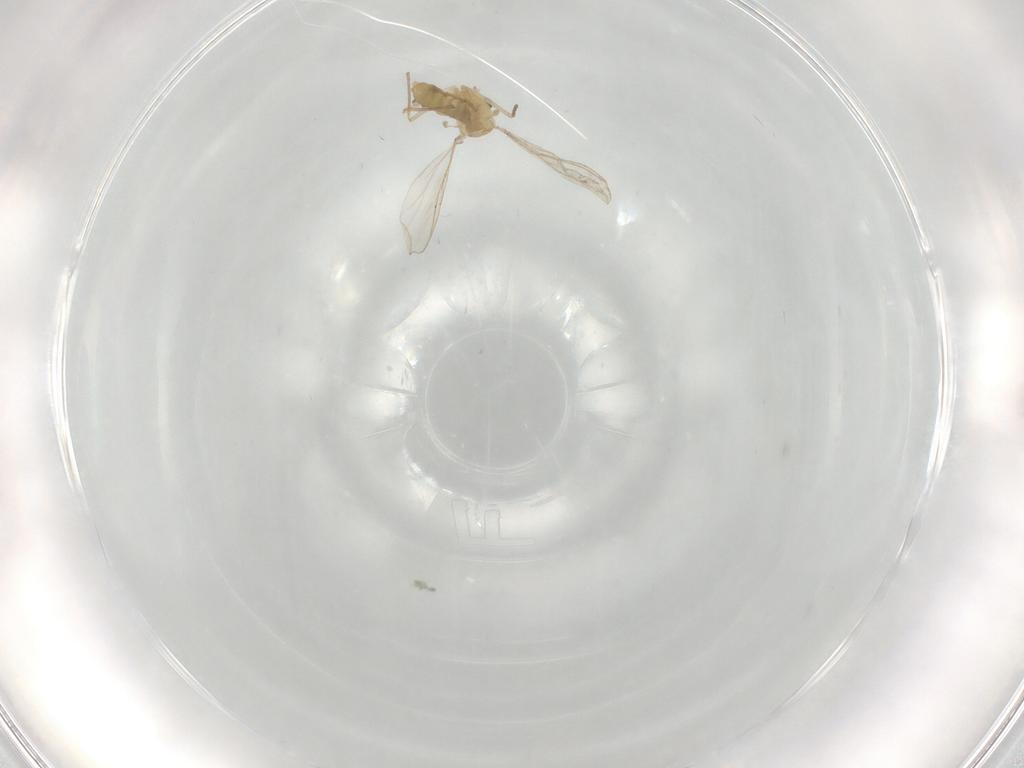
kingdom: Animalia
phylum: Arthropoda
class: Insecta
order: Diptera
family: Chironomidae
